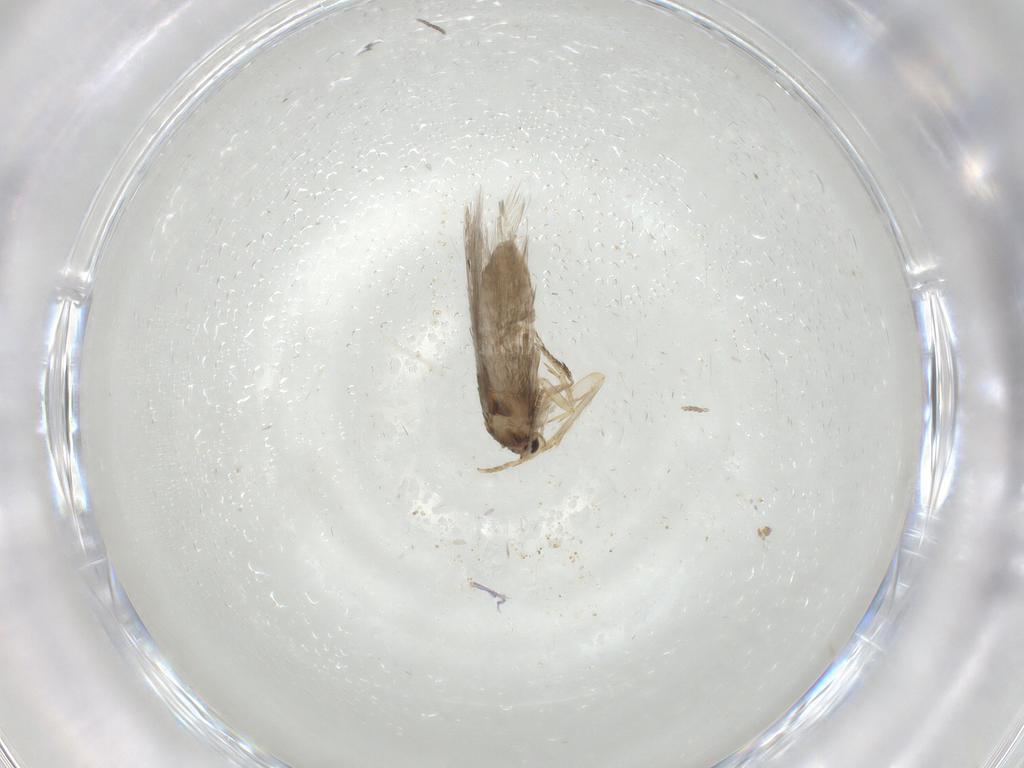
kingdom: Animalia
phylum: Arthropoda
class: Insecta
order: Lepidoptera
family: Nepticulidae
